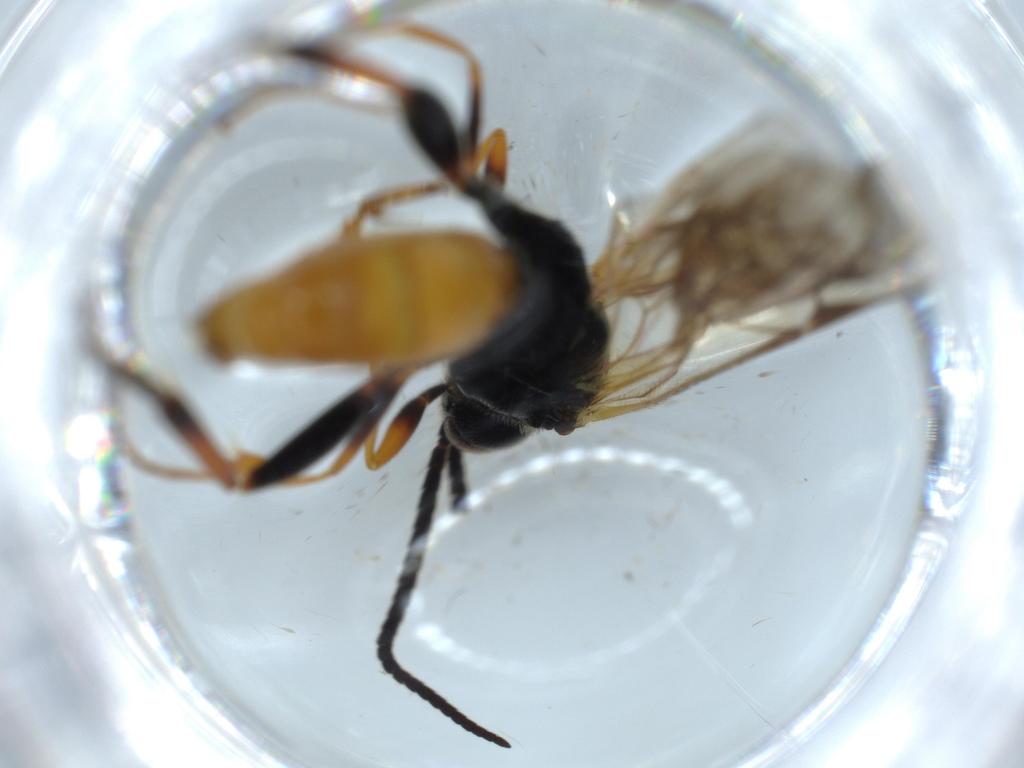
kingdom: Animalia
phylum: Arthropoda
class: Insecta
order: Hymenoptera
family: Ichneumonidae
